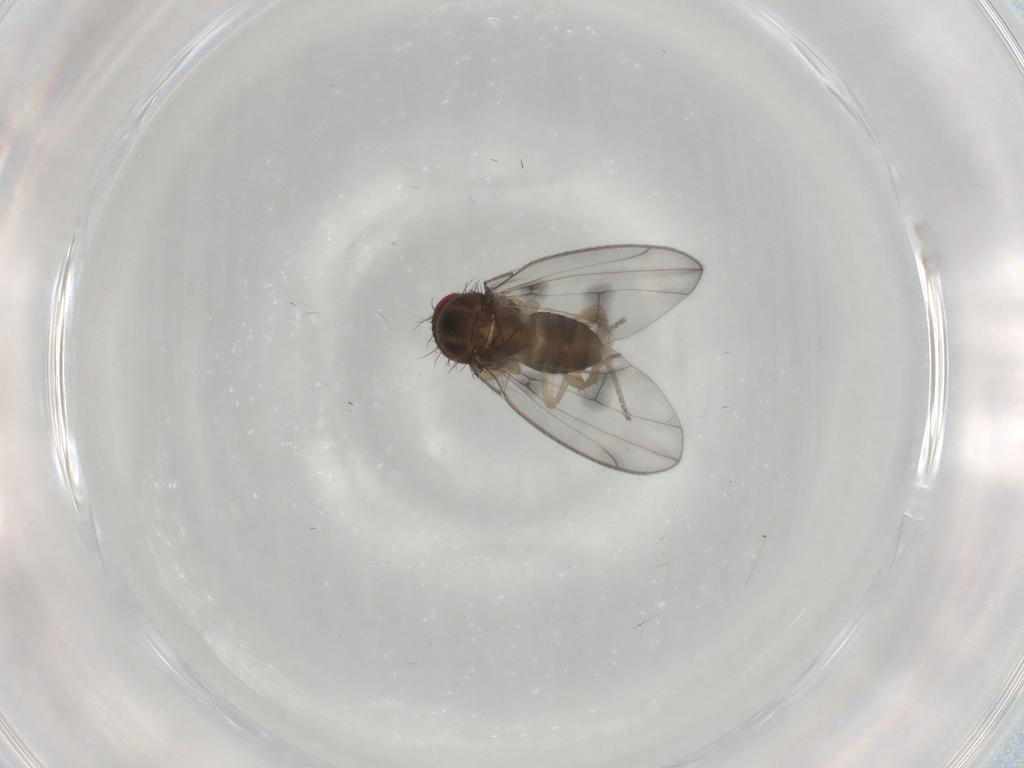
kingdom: Animalia
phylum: Arthropoda
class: Insecta
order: Diptera
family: Drosophilidae
